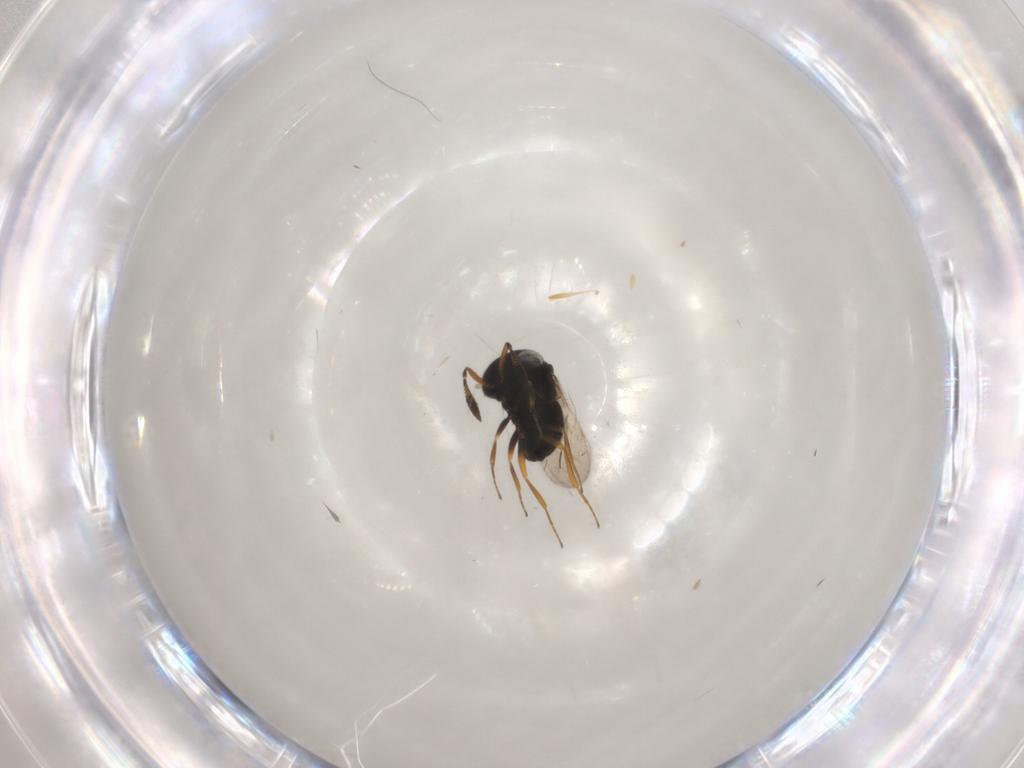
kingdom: Animalia
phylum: Arthropoda
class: Insecta
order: Hymenoptera
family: Scelionidae
